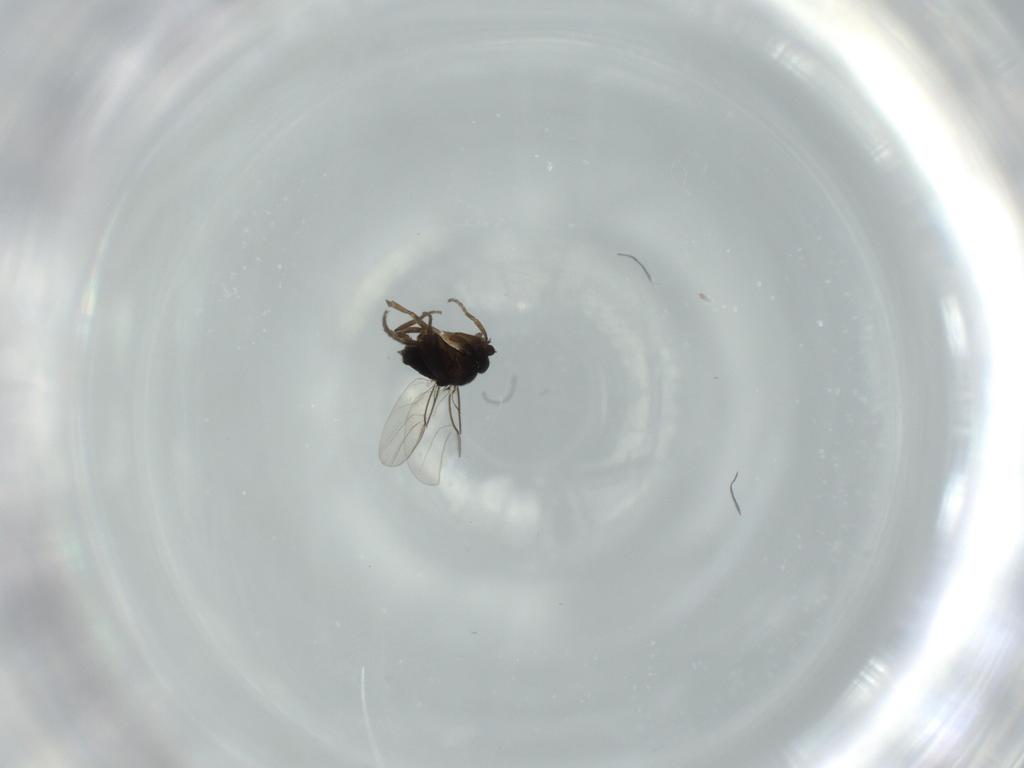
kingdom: Animalia
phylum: Arthropoda
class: Insecta
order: Diptera
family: Phoridae
